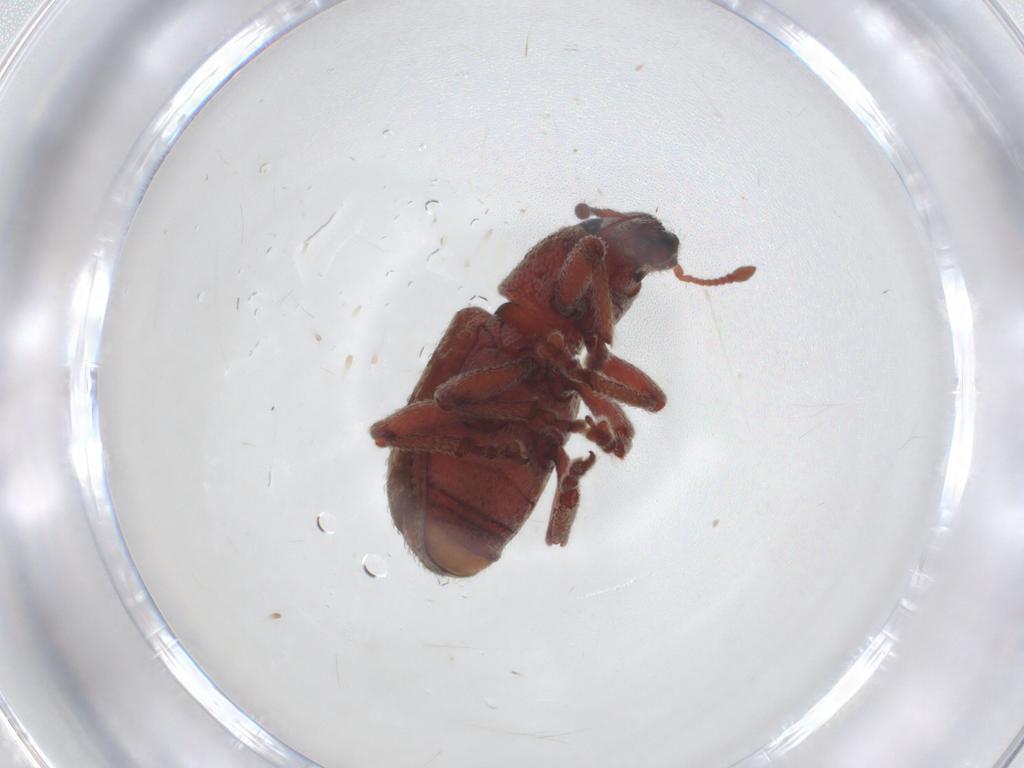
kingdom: Animalia
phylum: Arthropoda
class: Insecta
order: Coleoptera
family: Curculionidae
